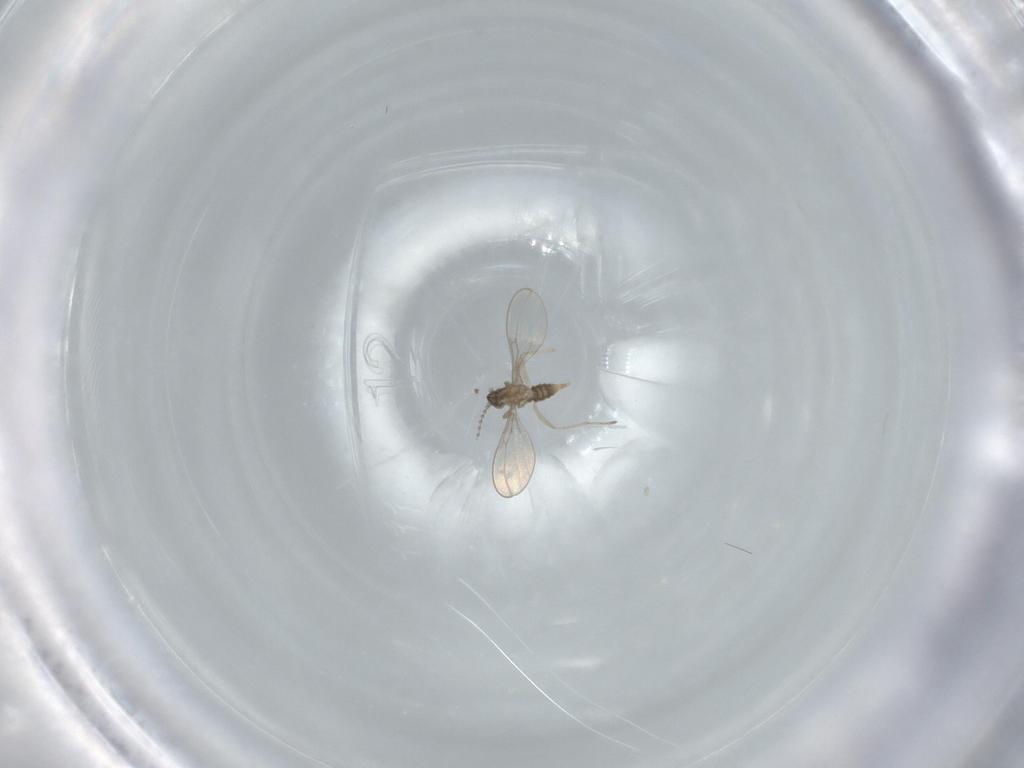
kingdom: Animalia
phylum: Arthropoda
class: Insecta
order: Diptera
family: Cecidomyiidae
